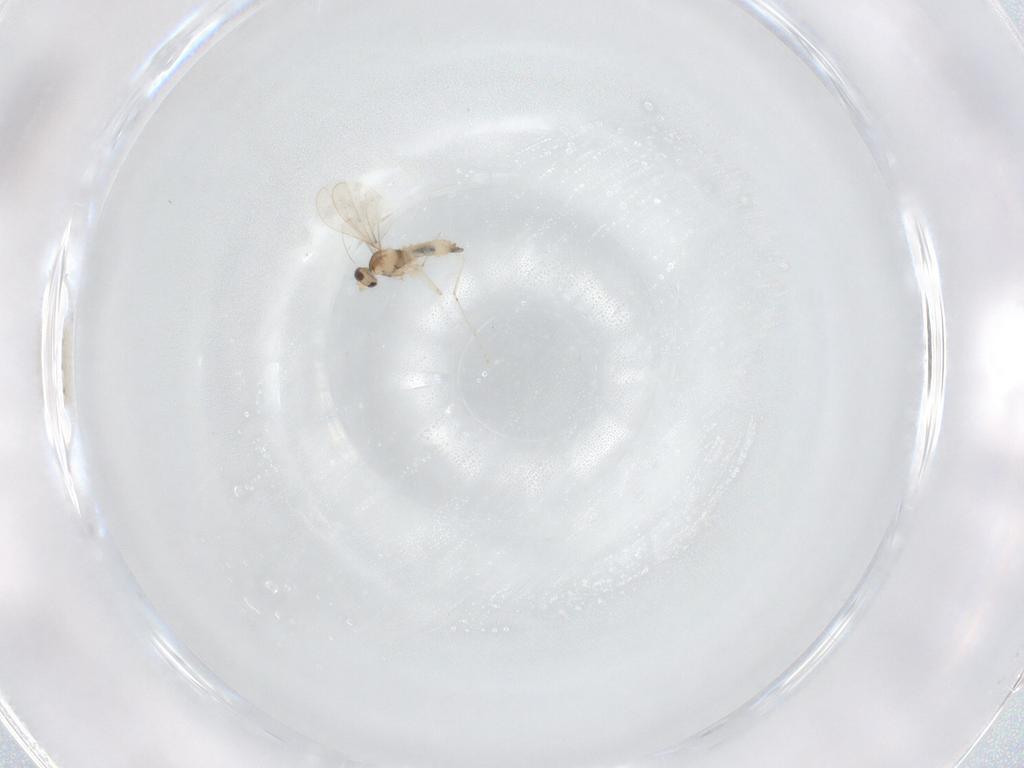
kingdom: Animalia
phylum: Arthropoda
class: Insecta
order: Diptera
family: Cecidomyiidae
